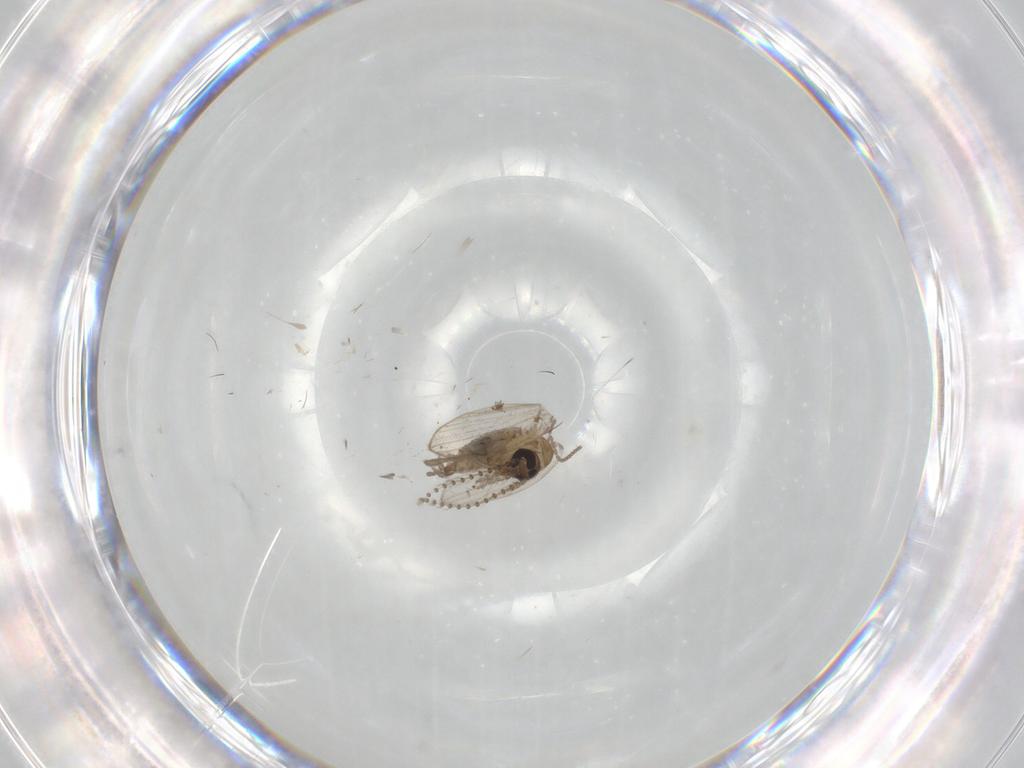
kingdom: Animalia
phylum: Arthropoda
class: Insecta
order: Diptera
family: Psychodidae
